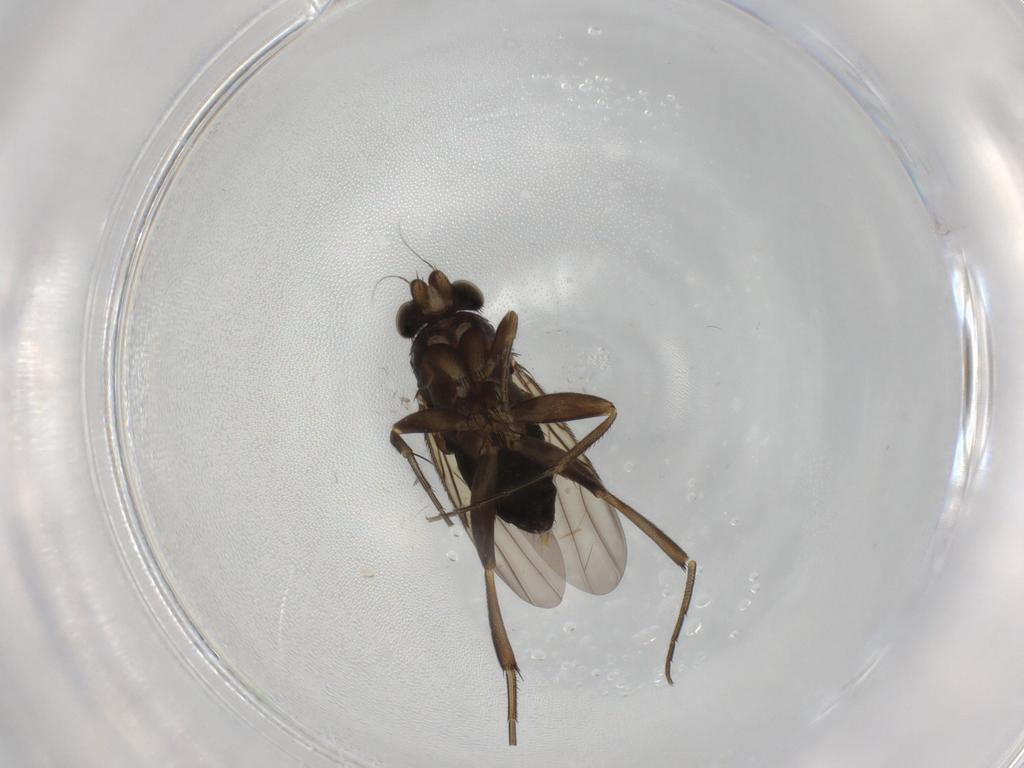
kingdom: Animalia
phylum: Arthropoda
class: Insecta
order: Diptera
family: Phoridae
